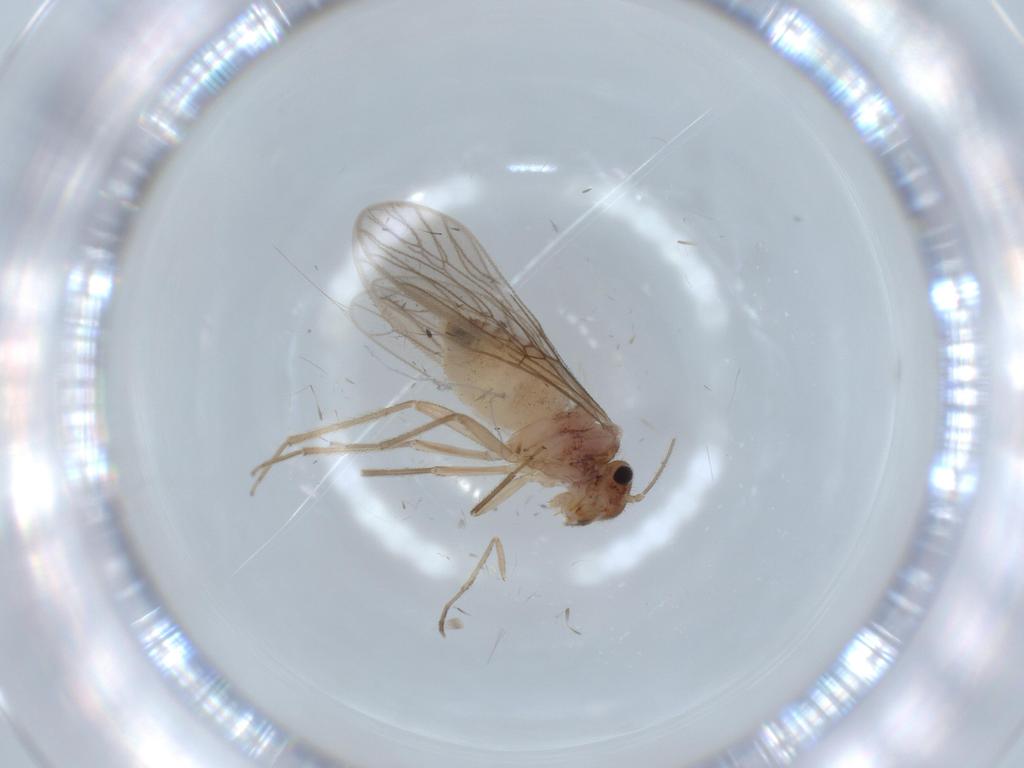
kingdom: Animalia
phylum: Arthropoda
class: Insecta
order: Psocodea
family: Cladiopsocidae
